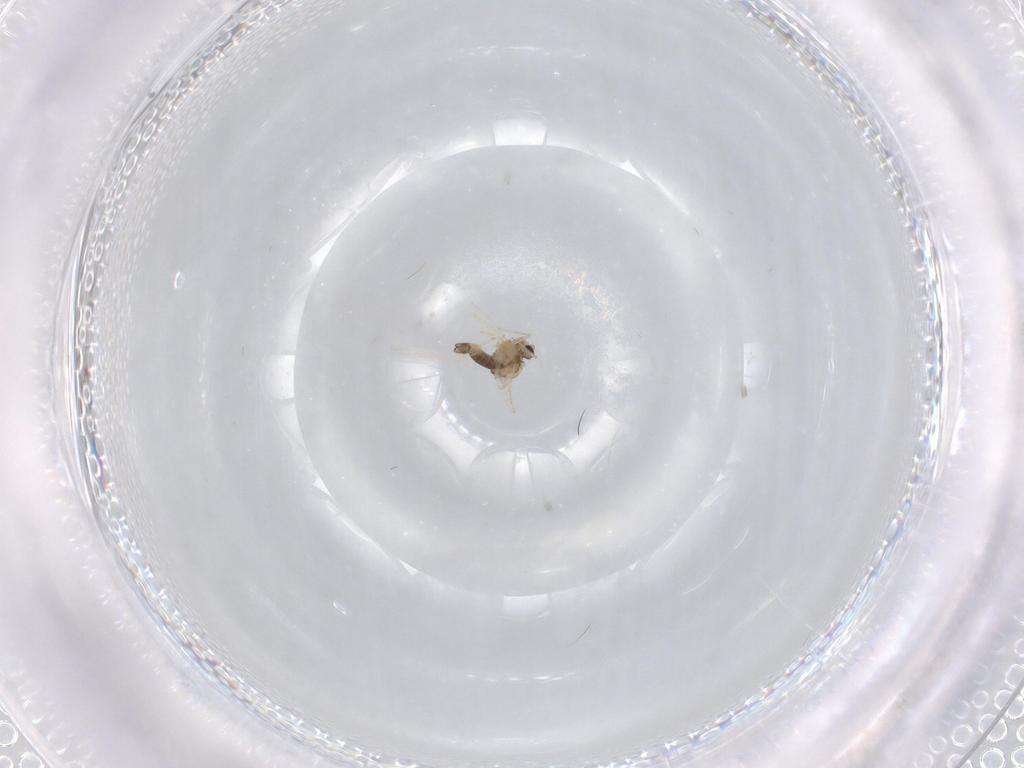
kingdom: Animalia
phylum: Arthropoda
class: Insecta
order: Diptera
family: Chironomidae
